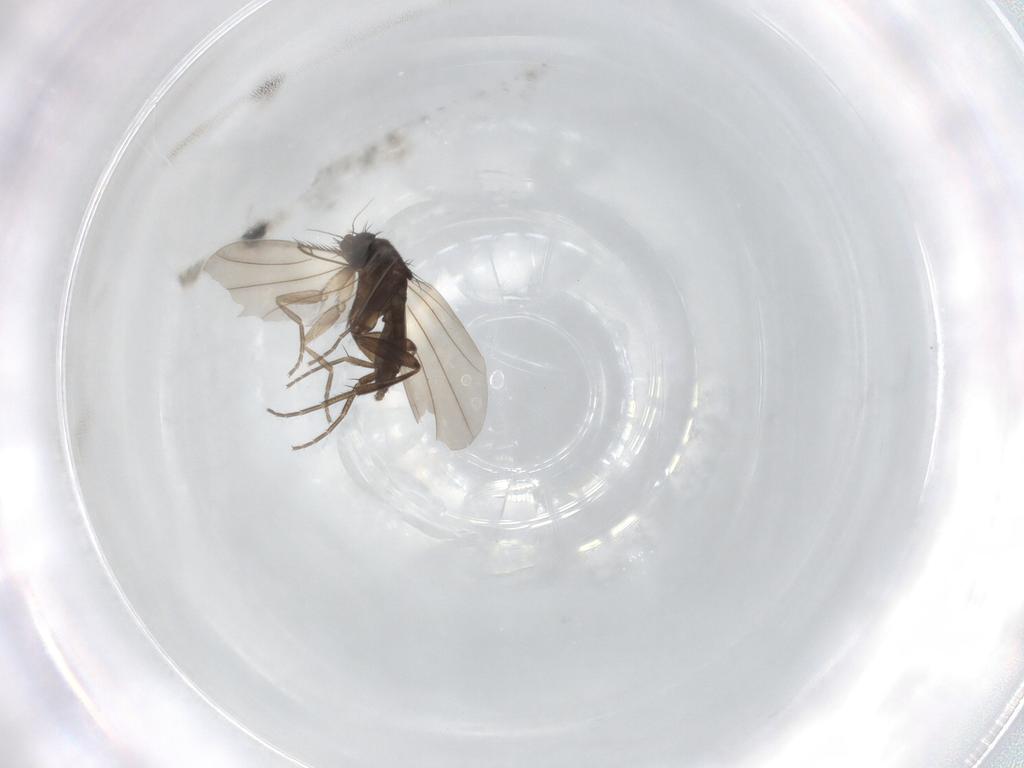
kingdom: Animalia
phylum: Arthropoda
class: Insecta
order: Diptera
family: Phoridae
